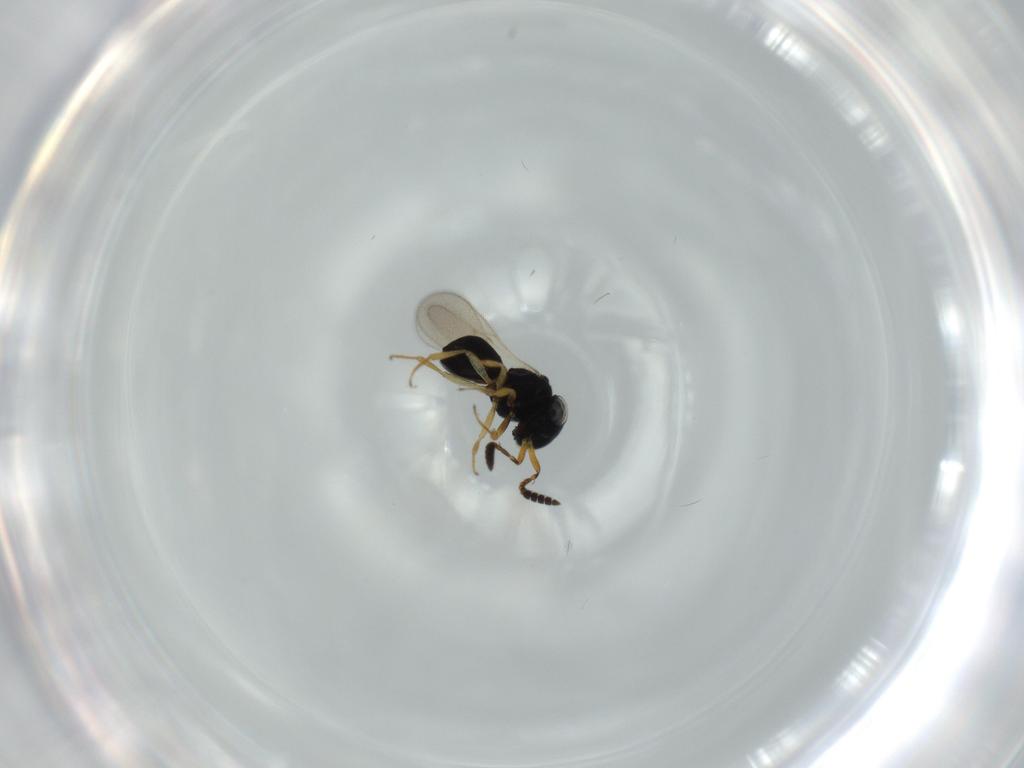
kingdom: Animalia
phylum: Arthropoda
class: Insecta
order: Hymenoptera
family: Scelionidae
